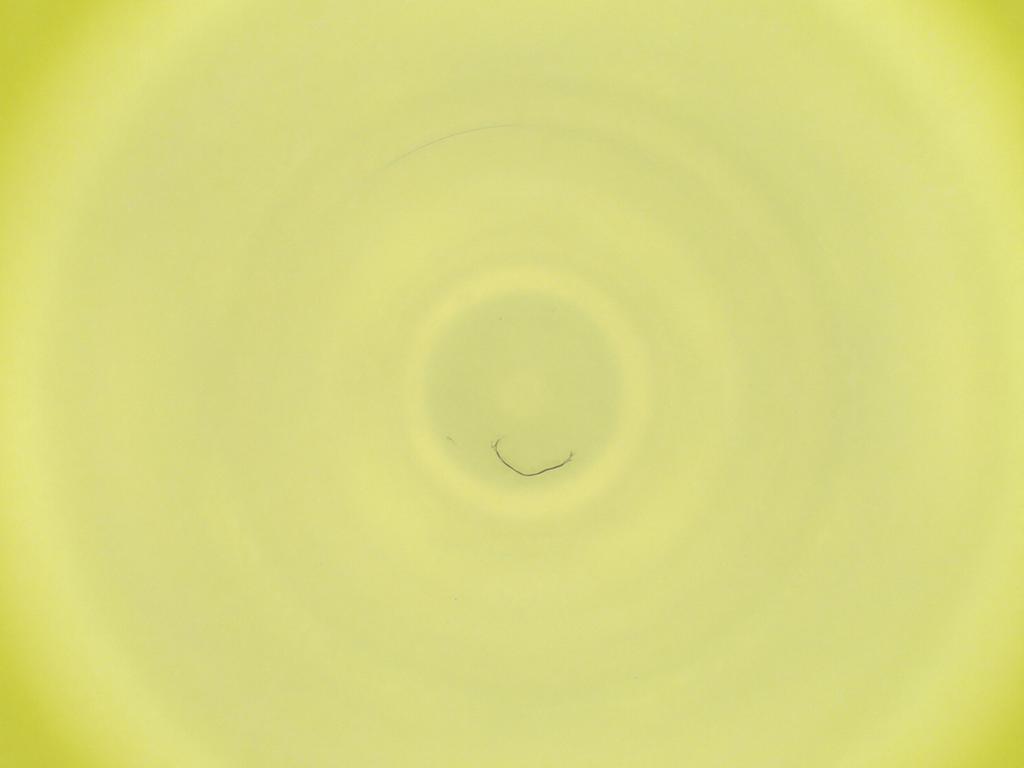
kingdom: Animalia
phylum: Arthropoda
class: Insecta
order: Diptera
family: Cecidomyiidae
